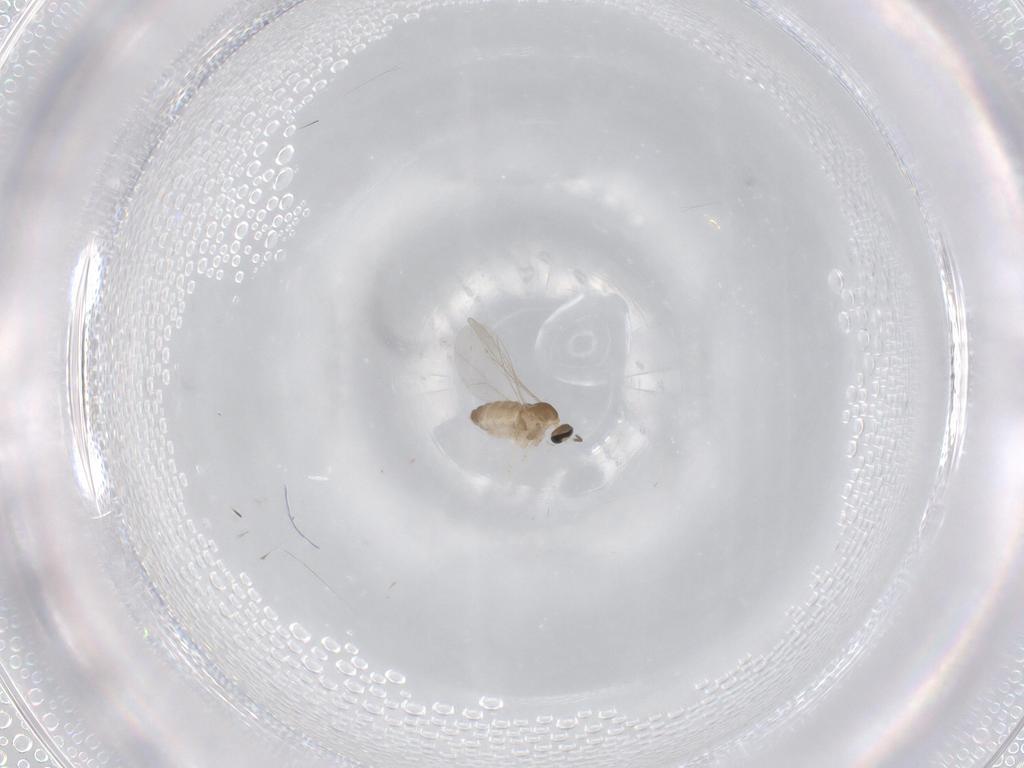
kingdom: Animalia
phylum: Arthropoda
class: Insecta
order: Diptera
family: Cecidomyiidae
